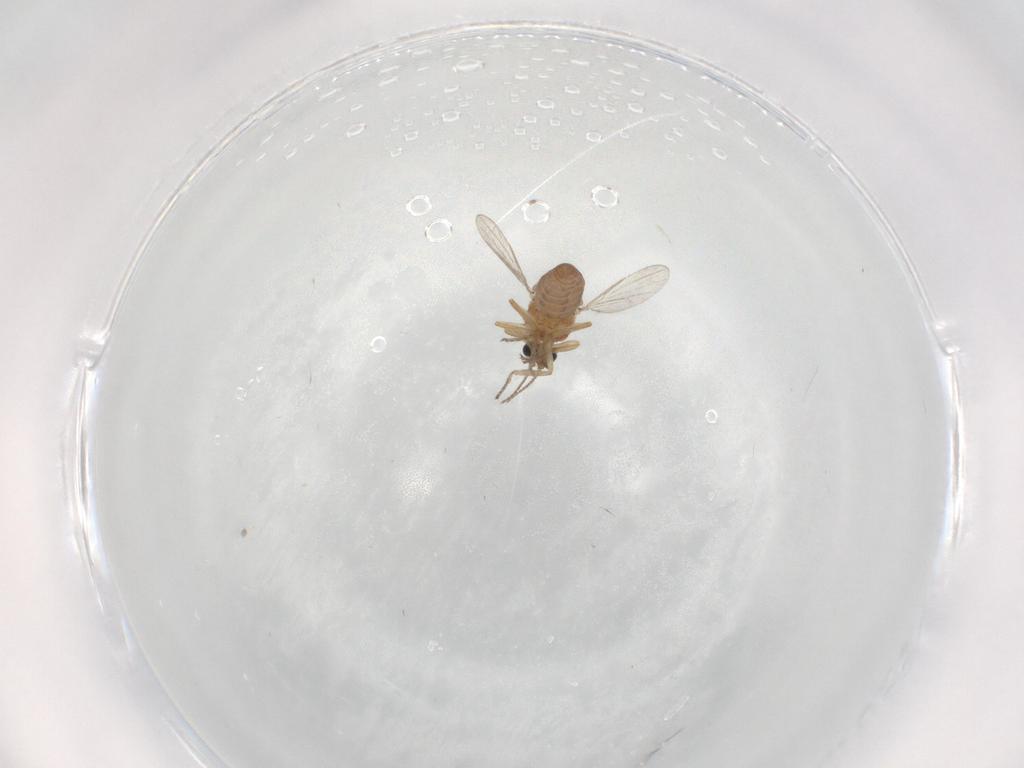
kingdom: Animalia
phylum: Arthropoda
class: Insecta
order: Diptera
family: Ceratopogonidae
